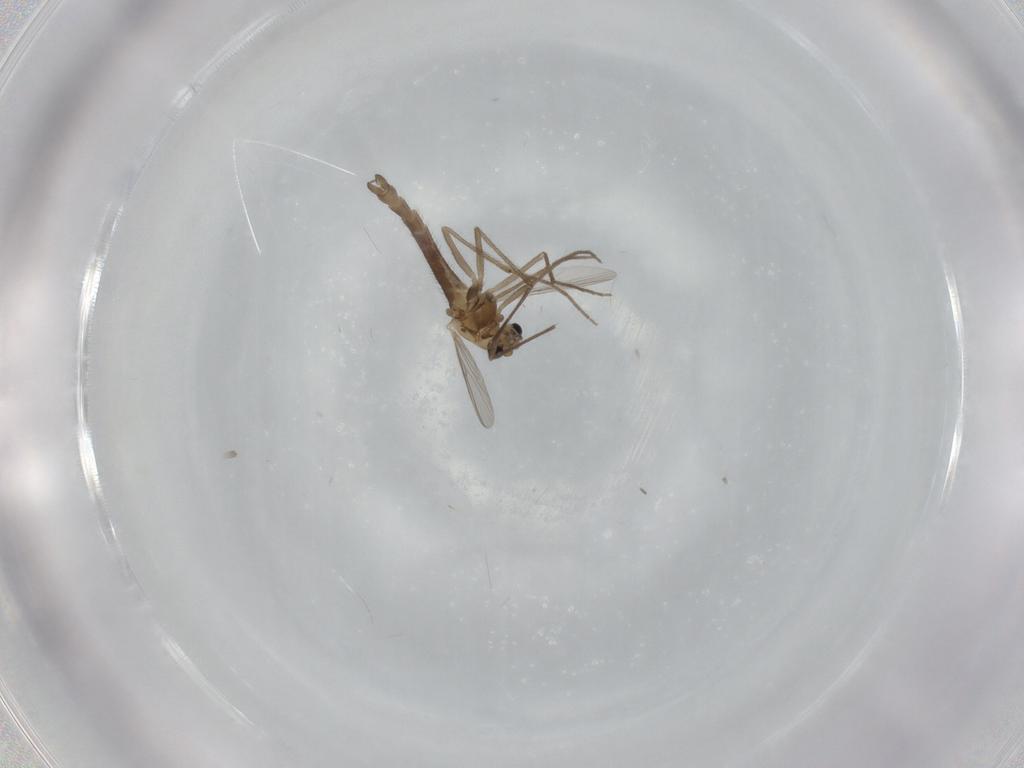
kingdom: Animalia
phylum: Arthropoda
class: Insecta
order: Diptera
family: Chironomidae
